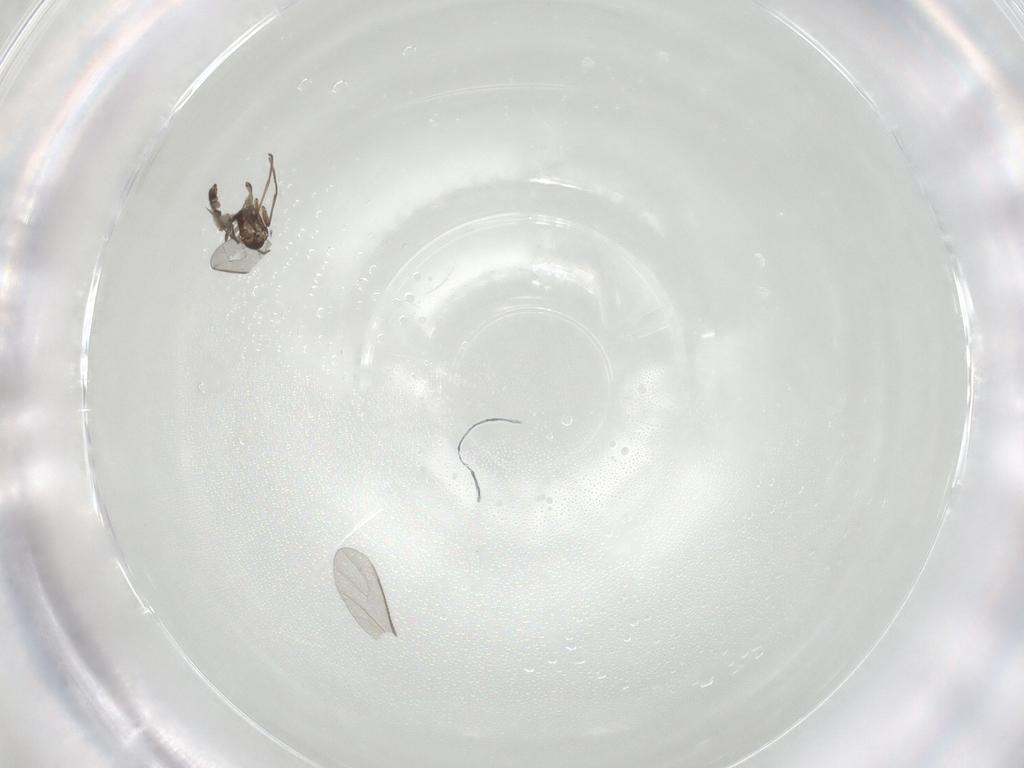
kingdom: Animalia
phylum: Arthropoda
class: Insecta
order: Diptera
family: Sciaridae
